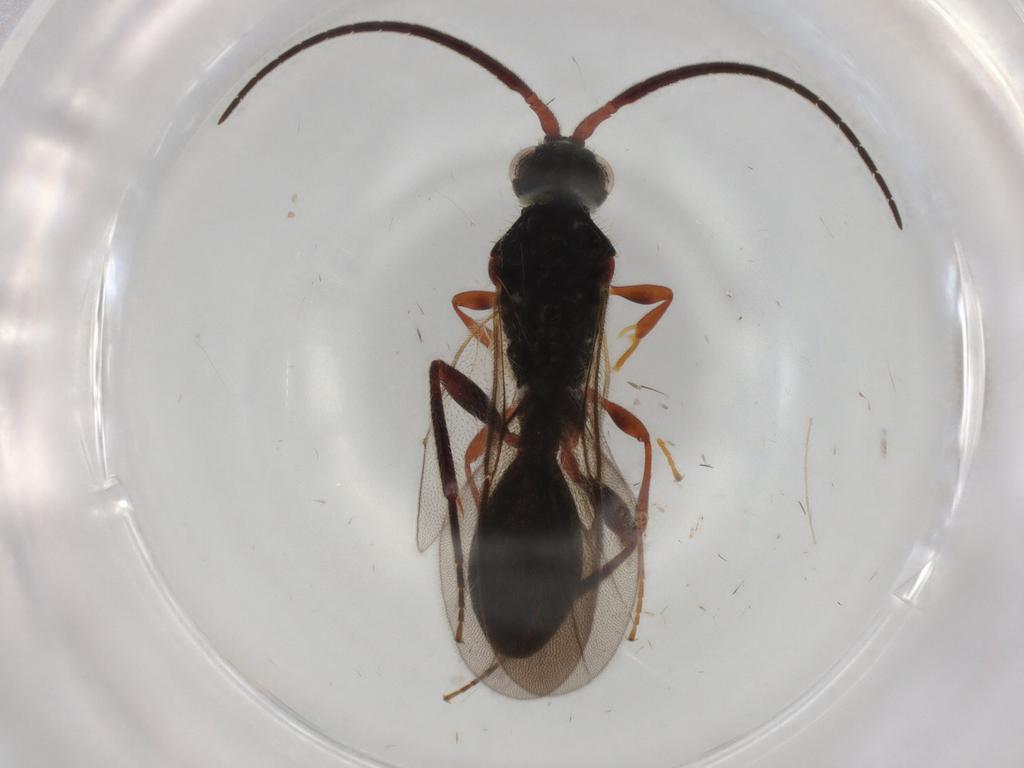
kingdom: Animalia
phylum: Arthropoda
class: Insecta
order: Hymenoptera
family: Diapriidae
